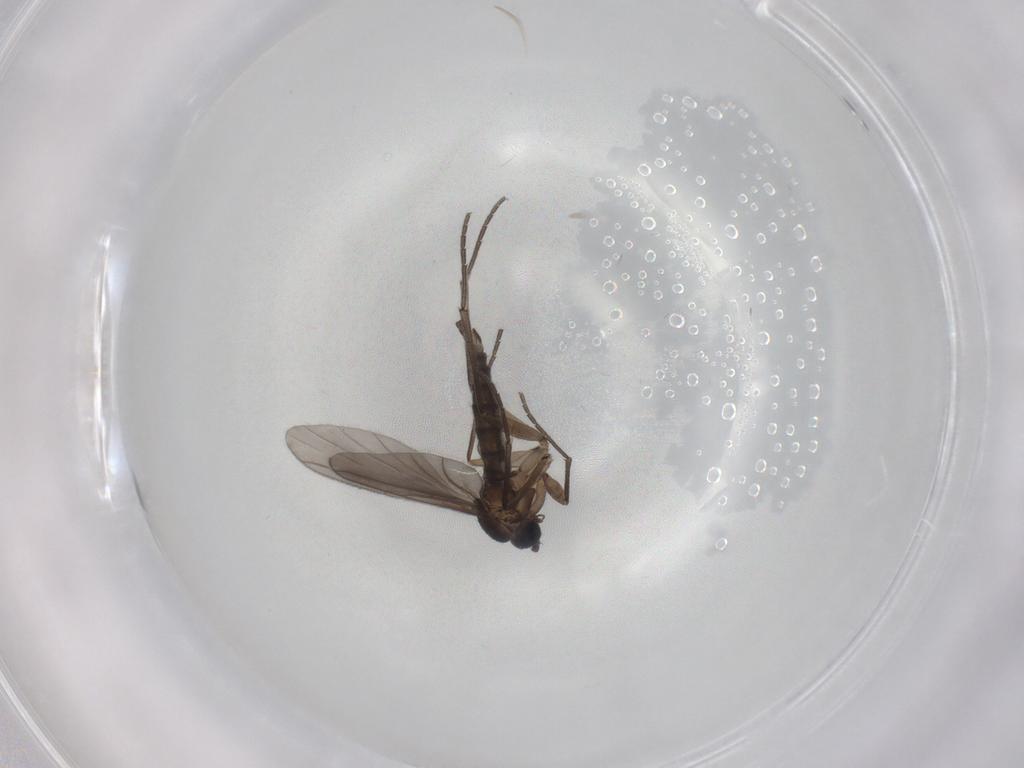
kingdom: Animalia
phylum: Arthropoda
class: Insecta
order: Diptera
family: Sciaridae
